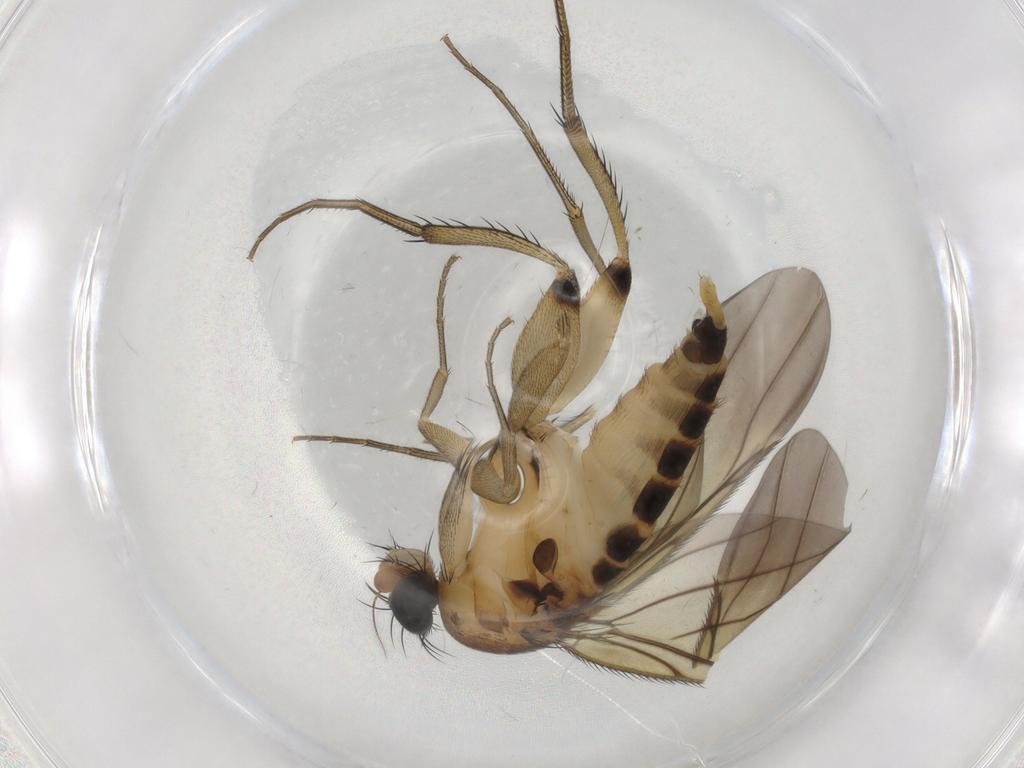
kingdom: Animalia
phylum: Arthropoda
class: Insecta
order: Diptera
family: Phoridae
